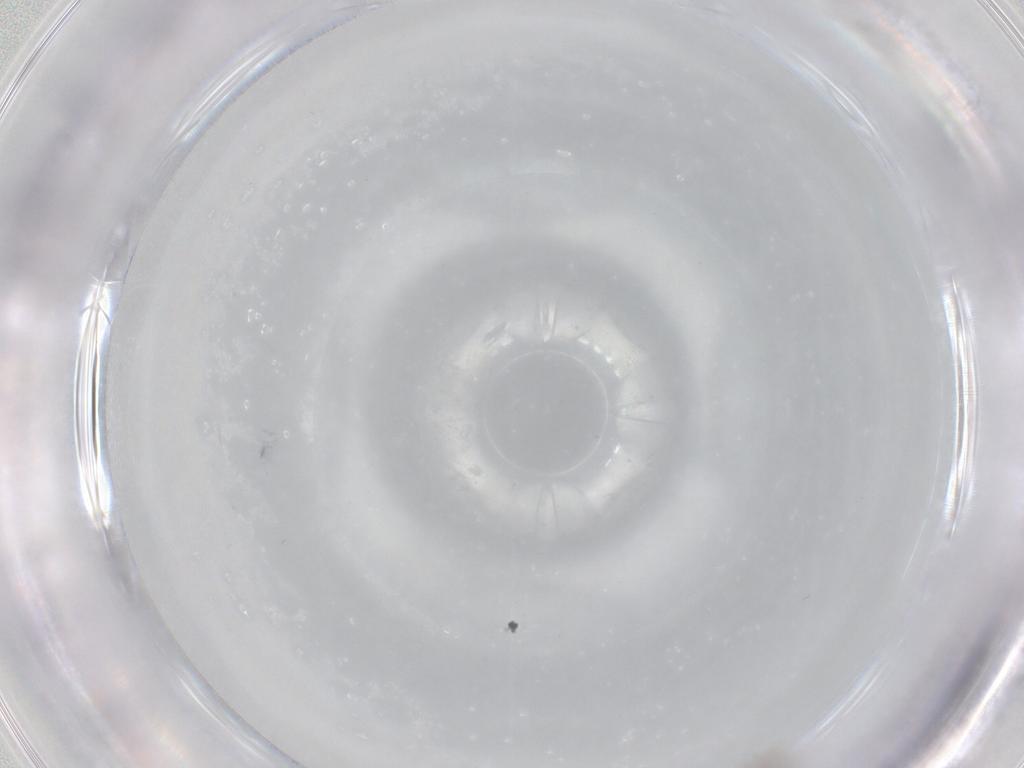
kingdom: Animalia
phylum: Arthropoda
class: Insecta
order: Diptera
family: Cecidomyiidae
